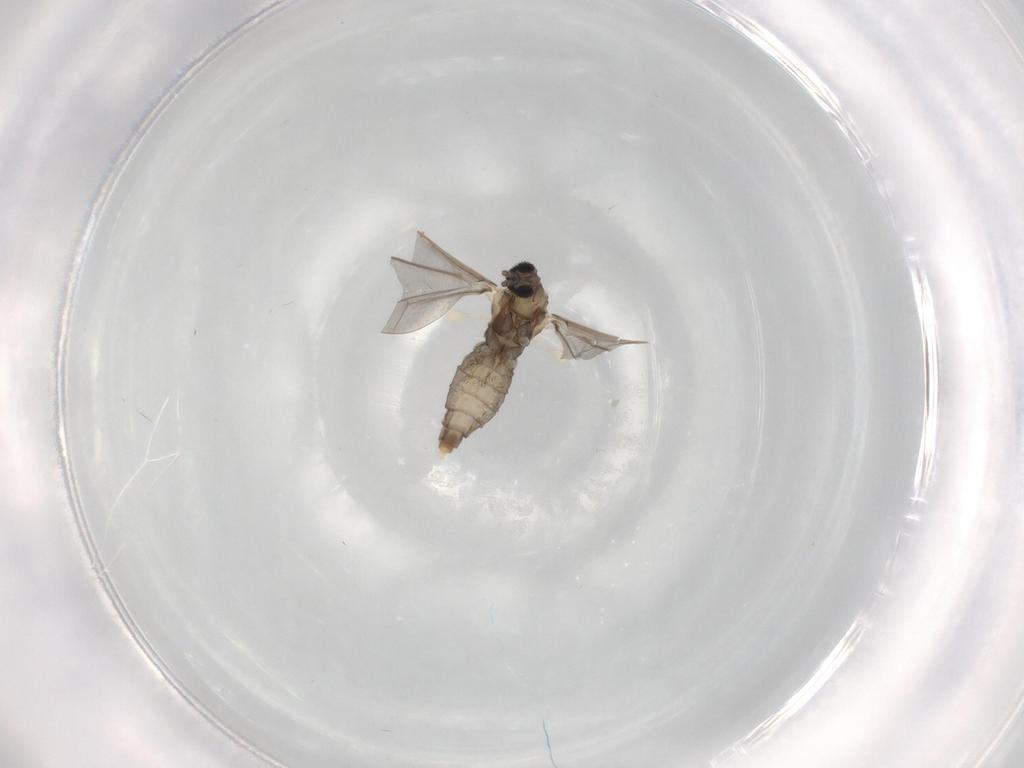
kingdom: Animalia
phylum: Arthropoda
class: Insecta
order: Diptera
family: Cecidomyiidae
